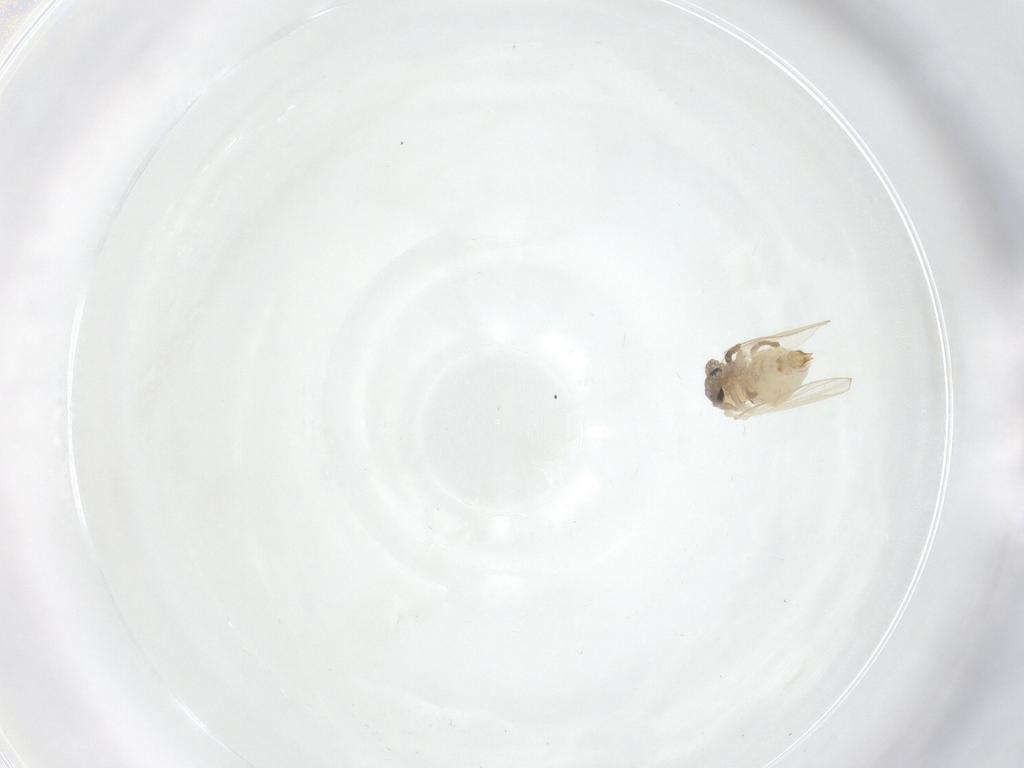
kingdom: Animalia
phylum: Arthropoda
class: Insecta
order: Diptera
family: Psychodidae
